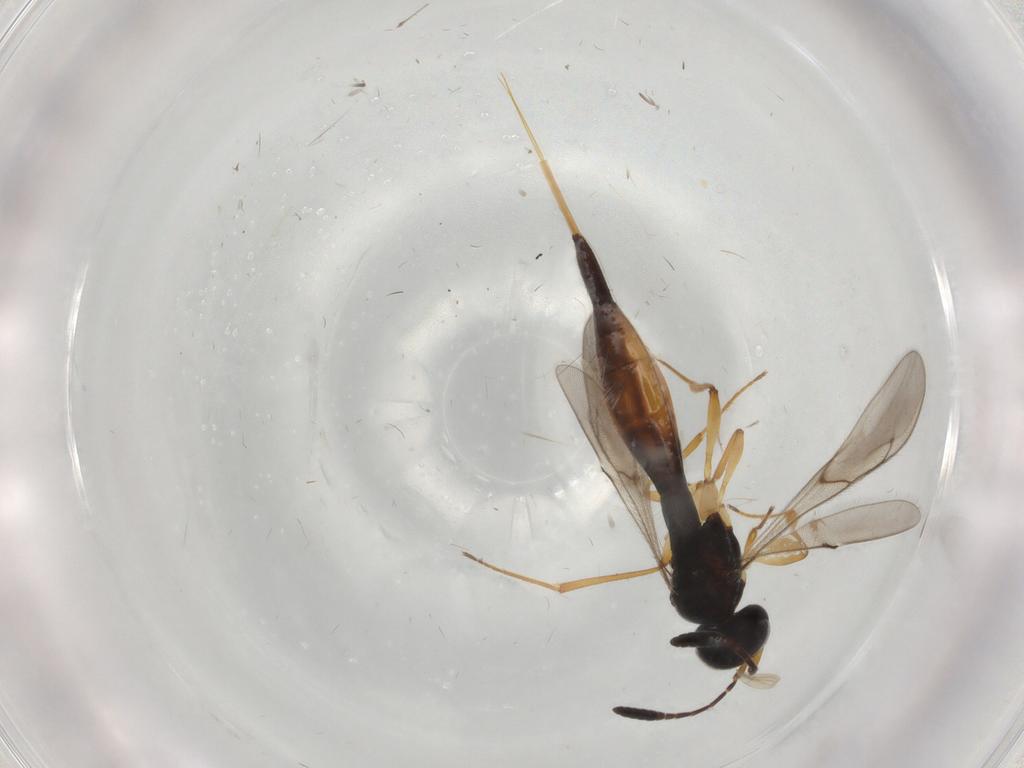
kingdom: Animalia
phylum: Arthropoda
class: Insecta
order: Hymenoptera
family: Scelionidae
